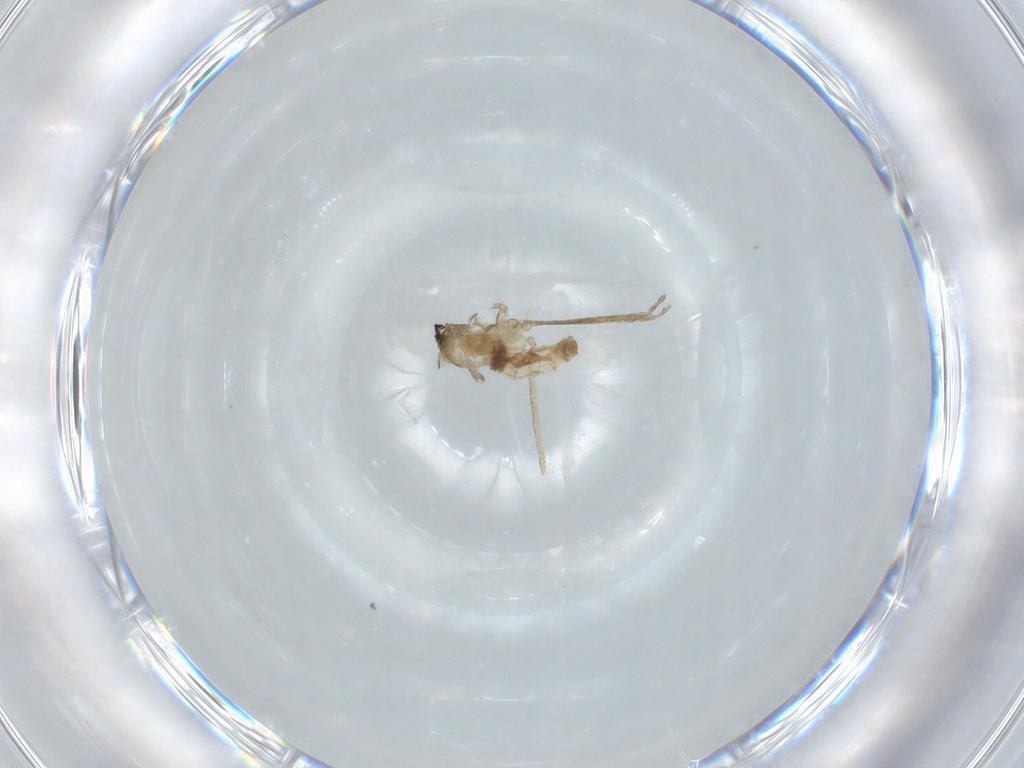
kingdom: Animalia
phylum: Arthropoda
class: Insecta
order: Diptera
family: Cecidomyiidae
